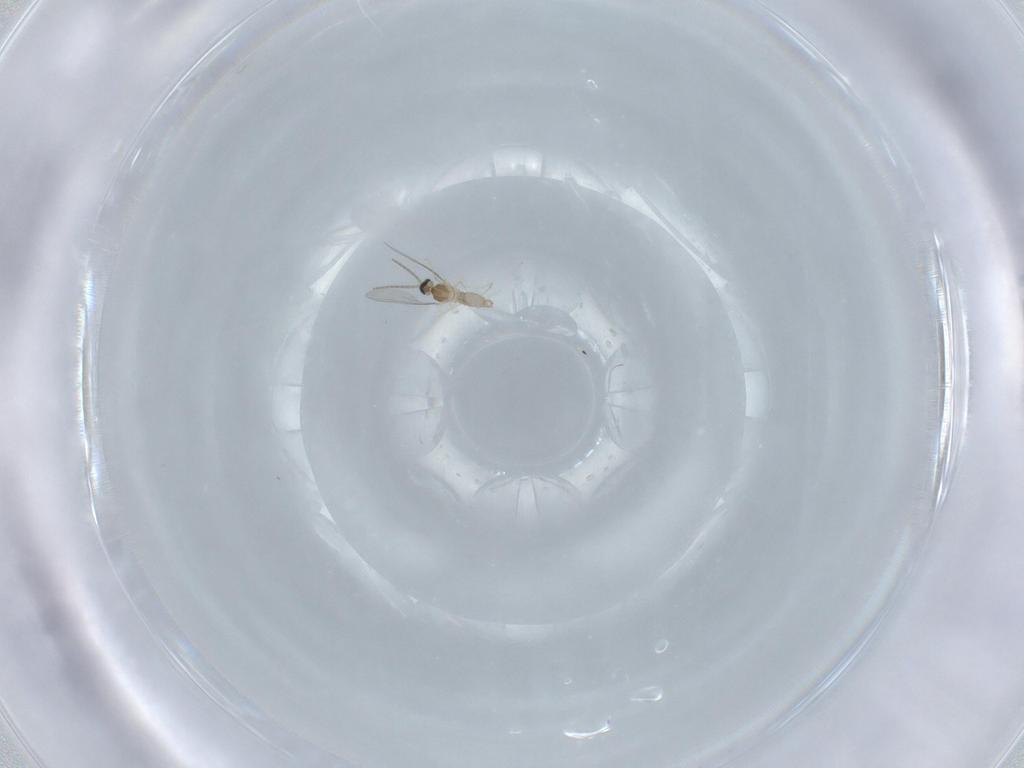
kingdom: Animalia
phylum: Arthropoda
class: Insecta
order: Diptera
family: Cecidomyiidae
